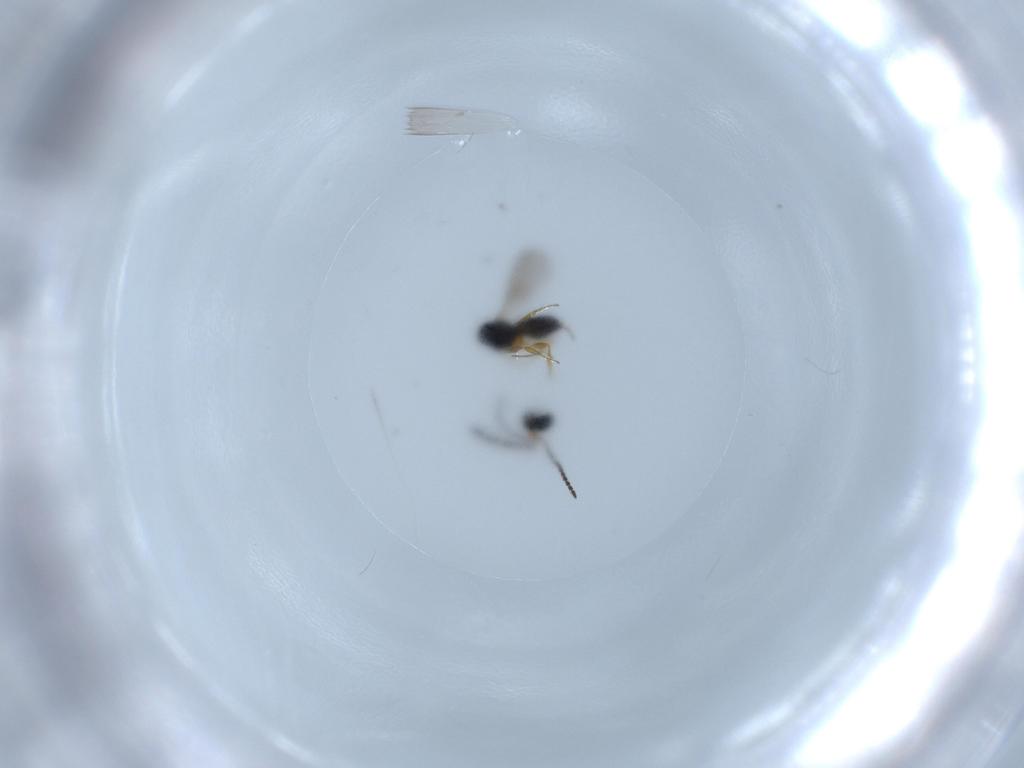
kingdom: Animalia
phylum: Arthropoda
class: Insecta
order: Hymenoptera
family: Scelionidae
